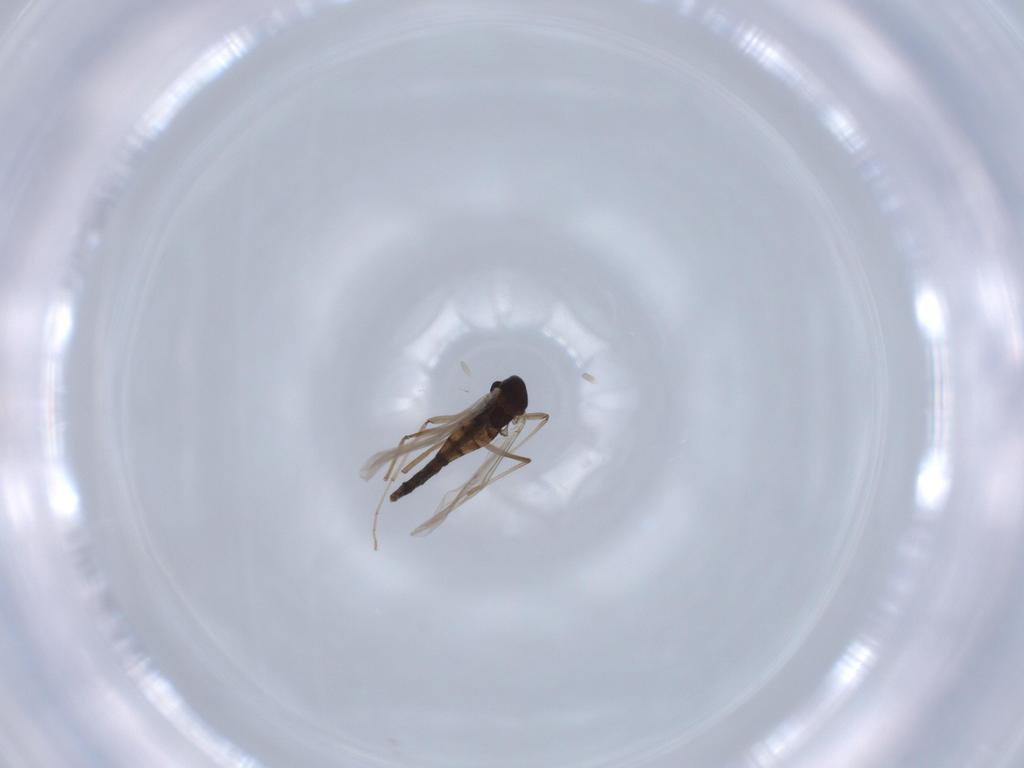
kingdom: Animalia
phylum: Arthropoda
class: Insecta
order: Diptera
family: Chironomidae
